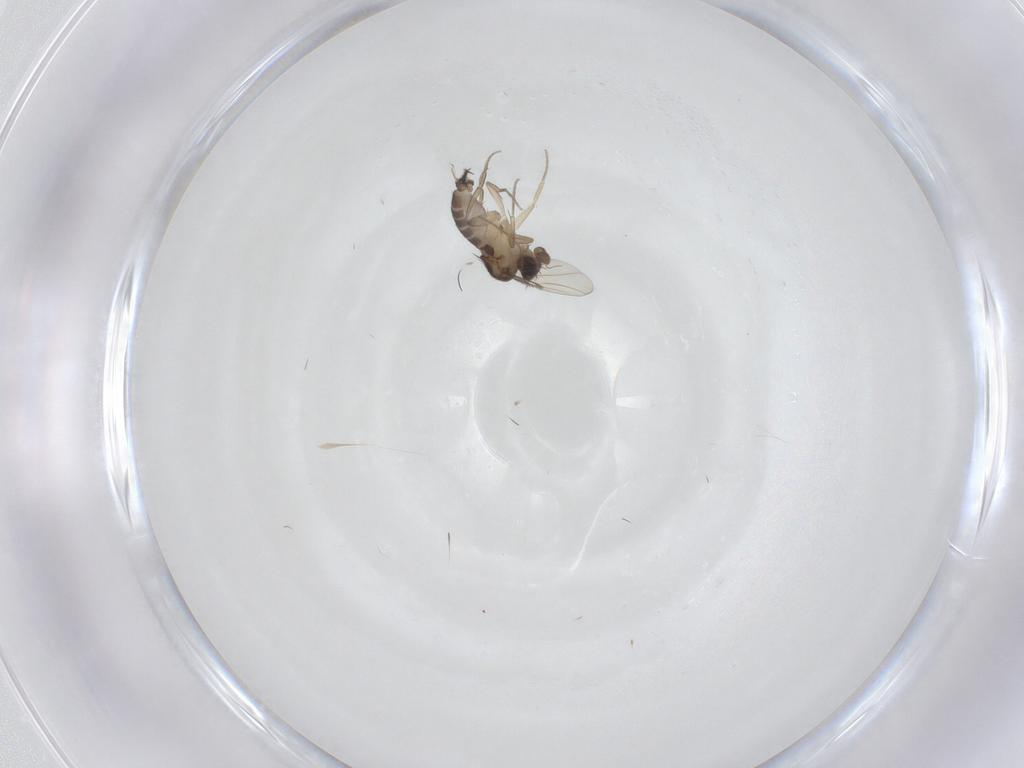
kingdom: Animalia
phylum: Arthropoda
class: Insecta
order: Diptera
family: Phoridae
